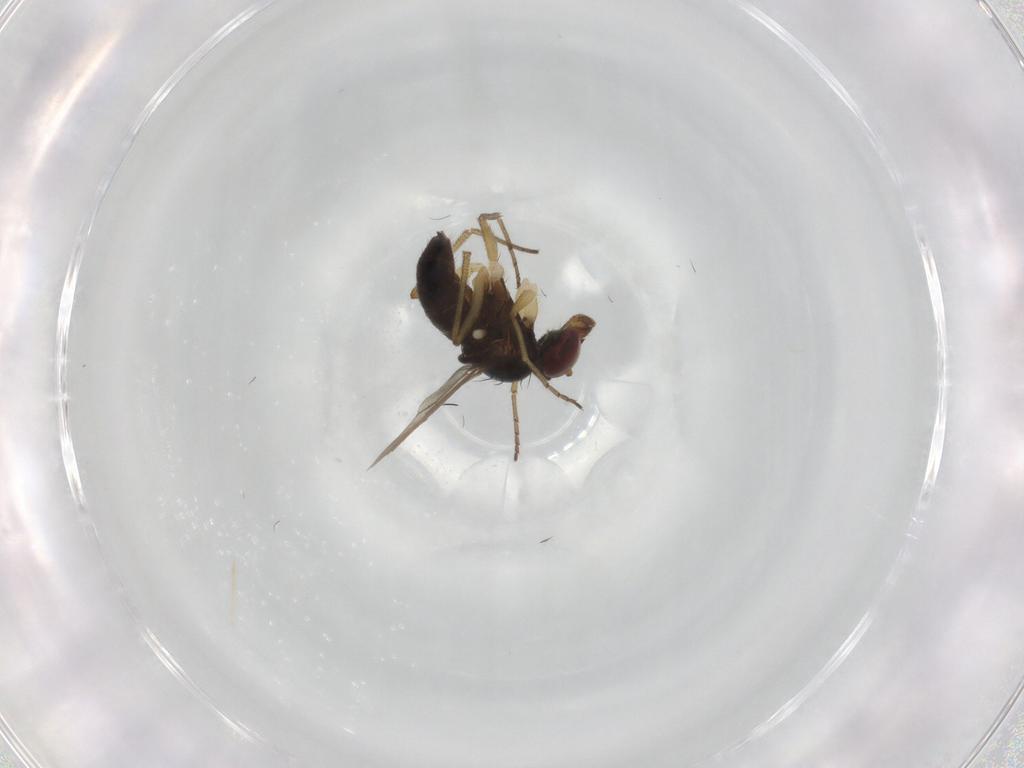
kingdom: Animalia
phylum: Arthropoda
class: Insecta
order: Diptera
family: Dolichopodidae
